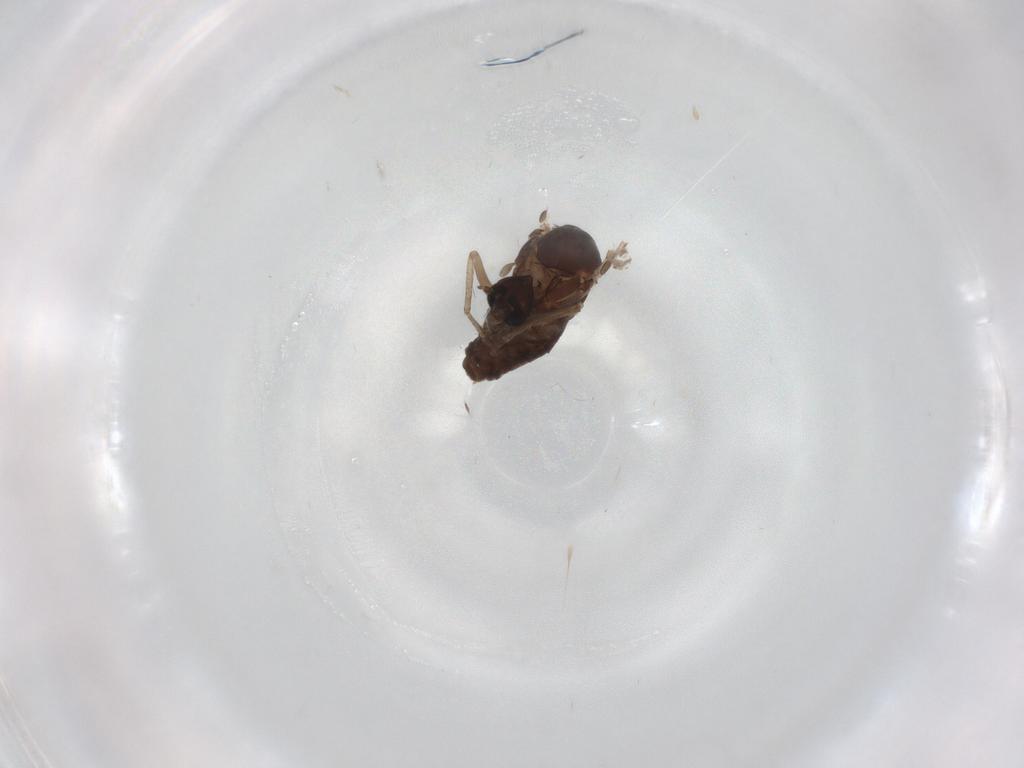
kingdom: Animalia
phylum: Arthropoda
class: Insecta
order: Diptera
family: Psychodidae
